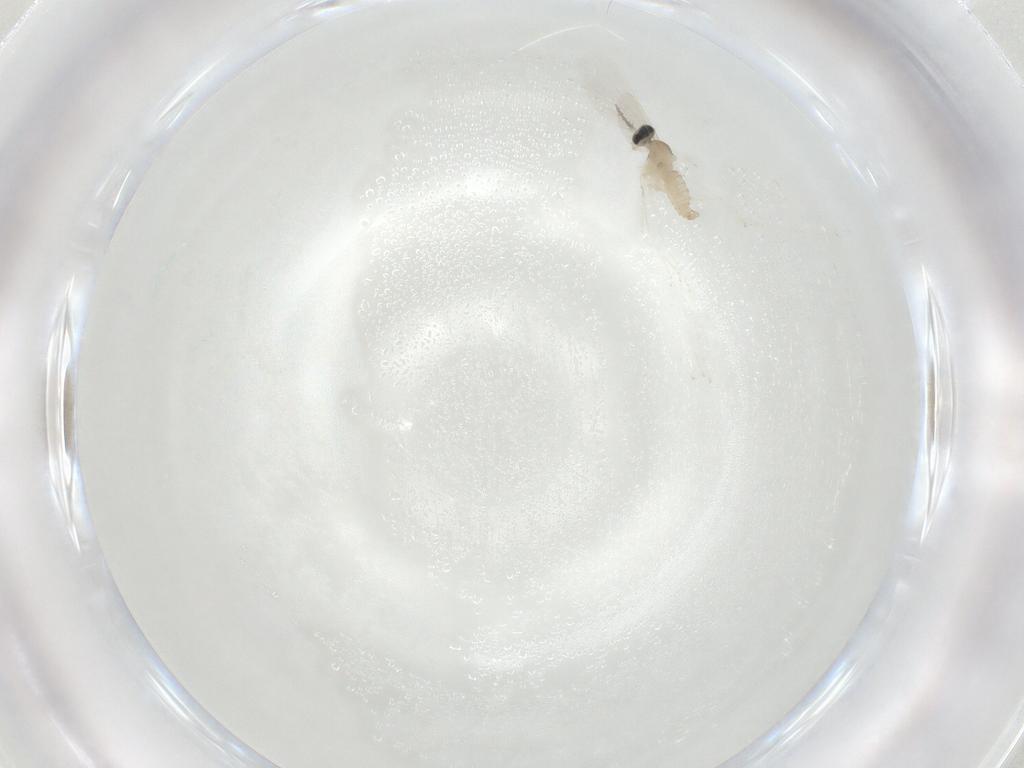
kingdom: Animalia
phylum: Arthropoda
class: Insecta
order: Diptera
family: Cecidomyiidae
